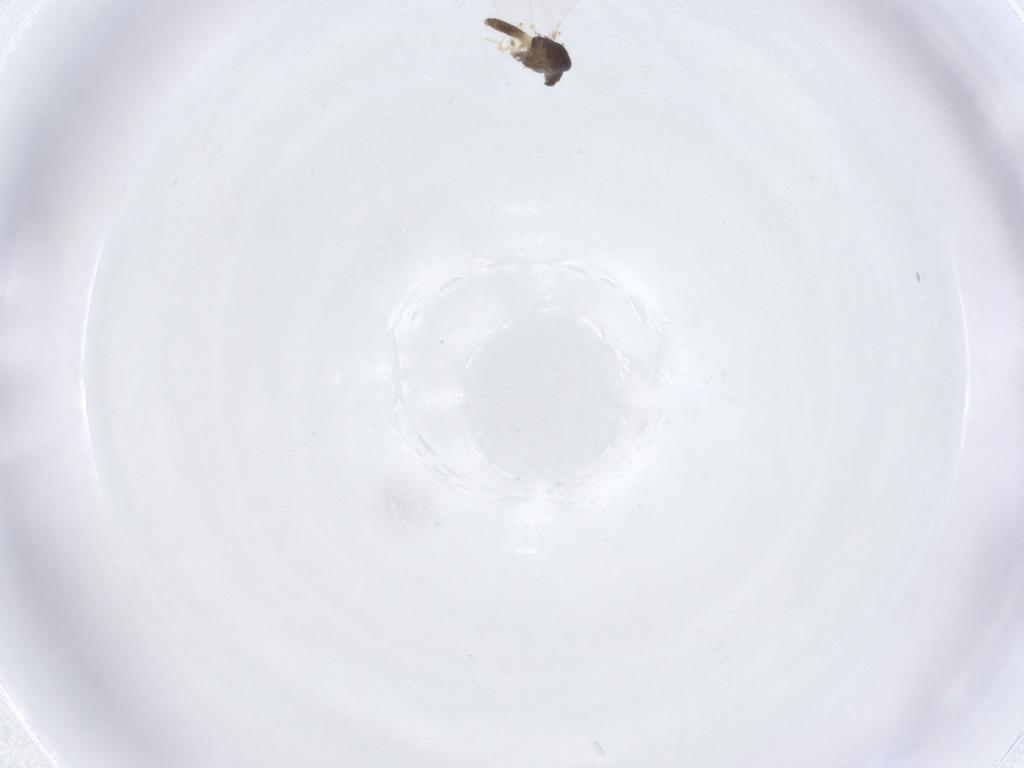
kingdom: Animalia
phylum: Arthropoda
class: Insecta
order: Diptera
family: Chironomidae
